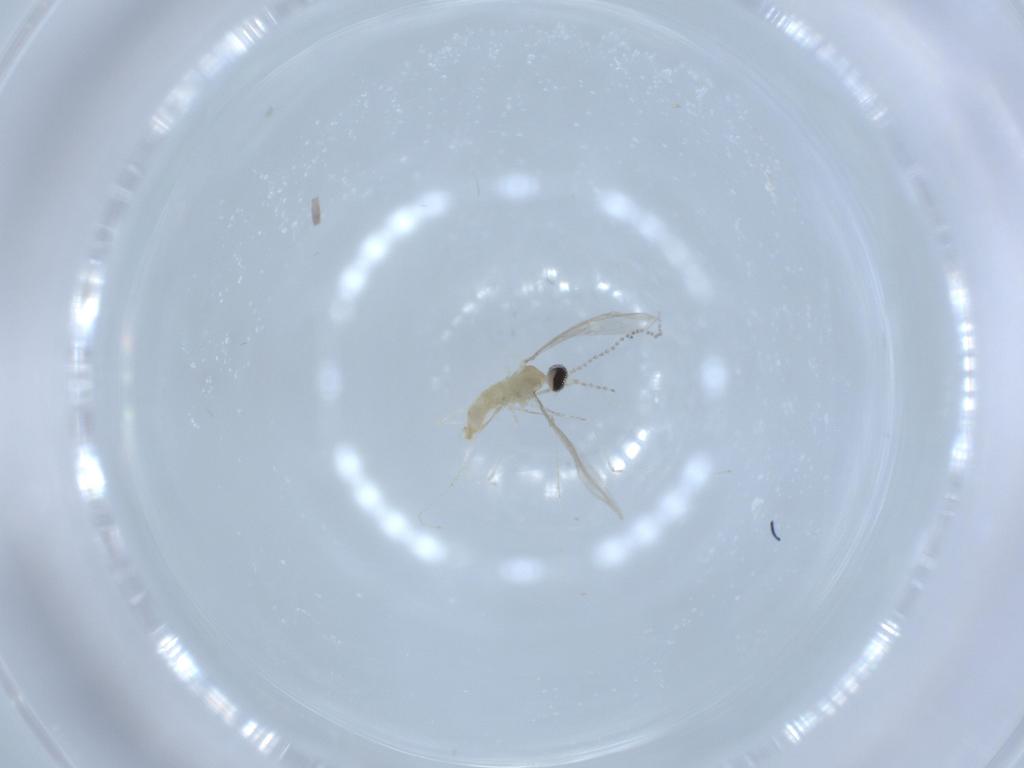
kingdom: Animalia
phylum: Arthropoda
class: Insecta
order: Diptera
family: Cecidomyiidae
